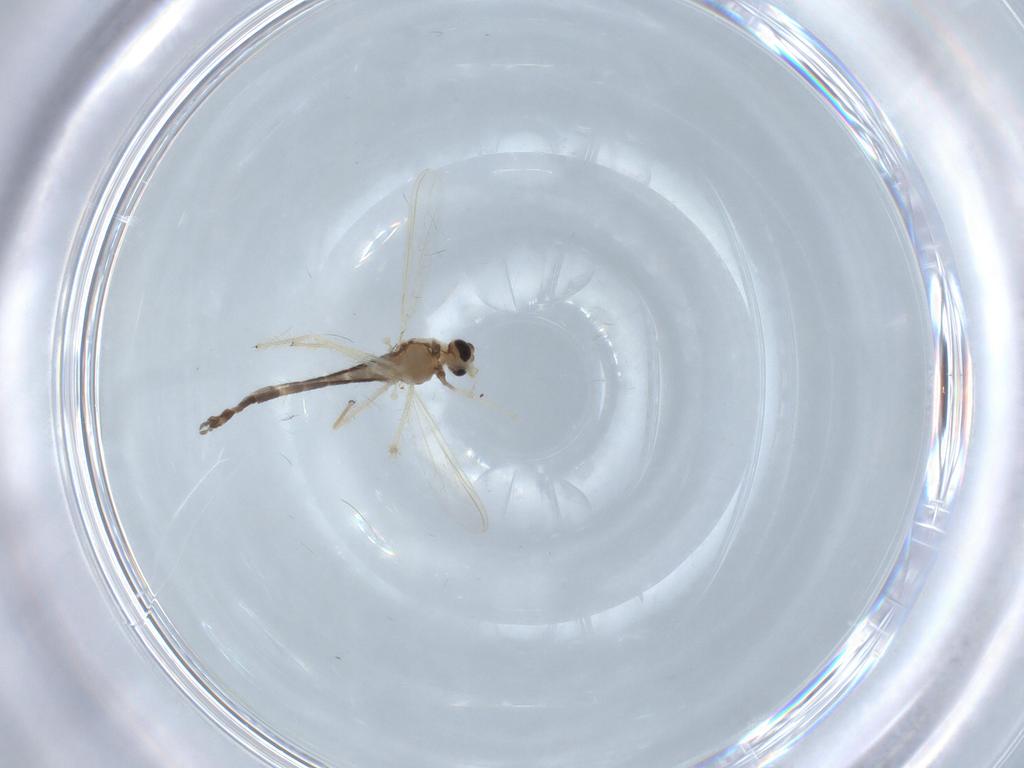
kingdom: Animalia
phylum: Arthropoda
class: Insecta
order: Diptera
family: Chironomidae
